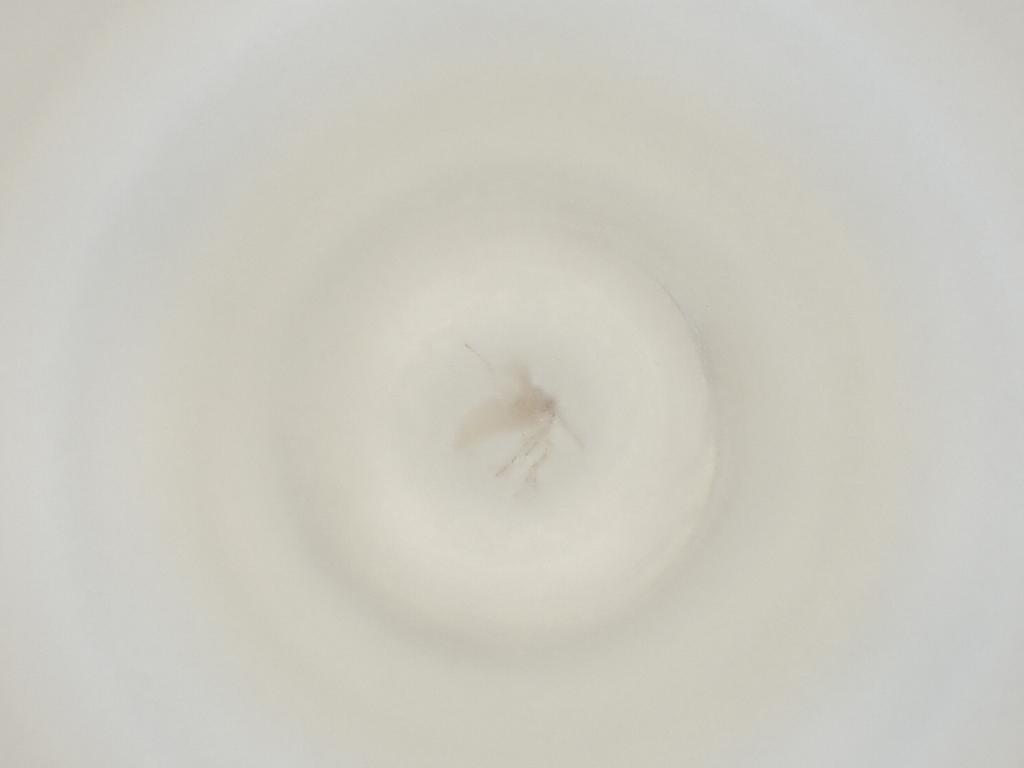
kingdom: Animalia
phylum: Arthropoda
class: Insecta
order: Diptera
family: Cecidomyiidae
